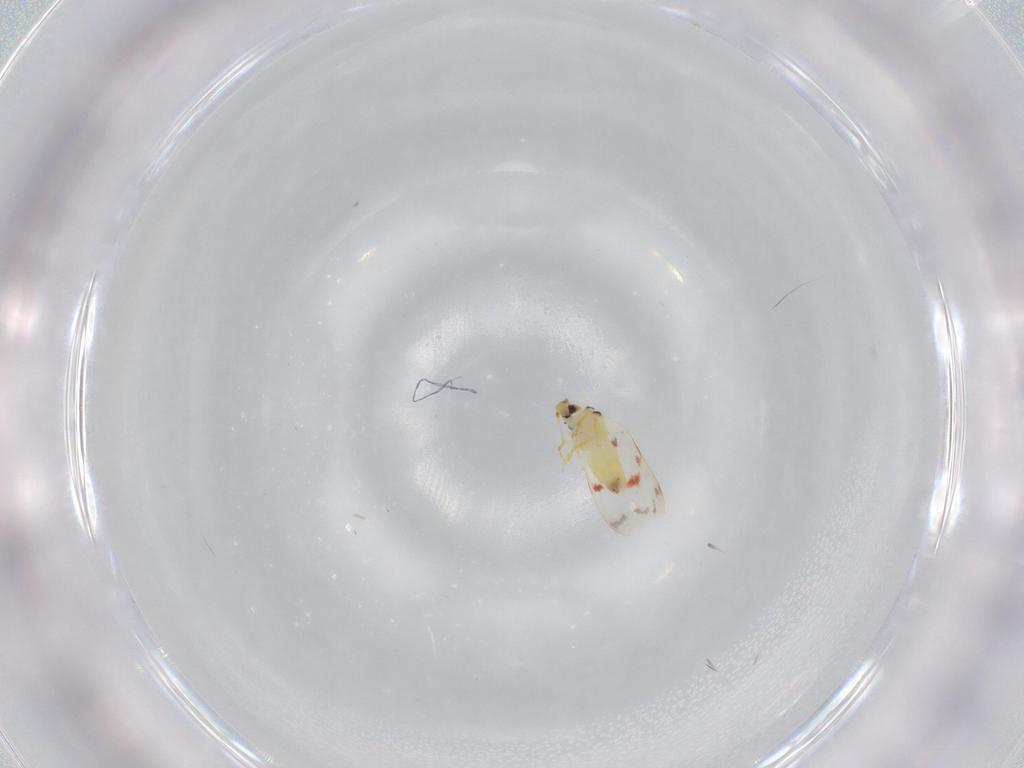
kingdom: Animalia
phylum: Arthropoda
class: Insecta
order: Hemiptera
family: Aleyrodidae
